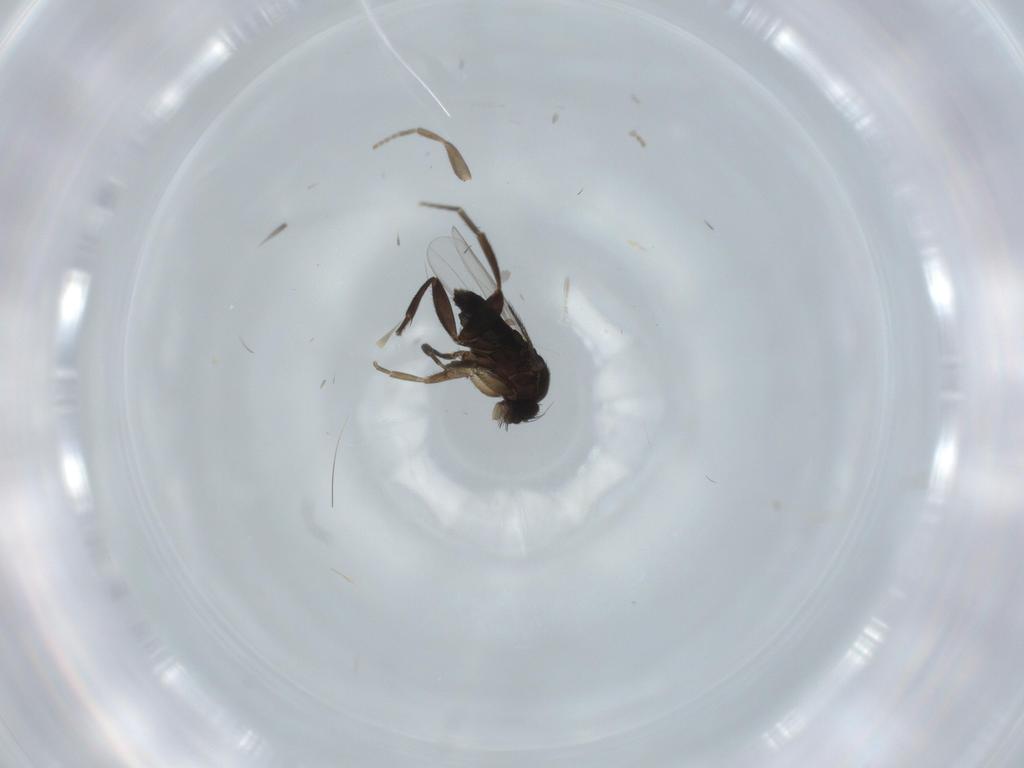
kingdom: Animalia
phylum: Arthropoda
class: Insecta
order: Diptera
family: Phoridae
